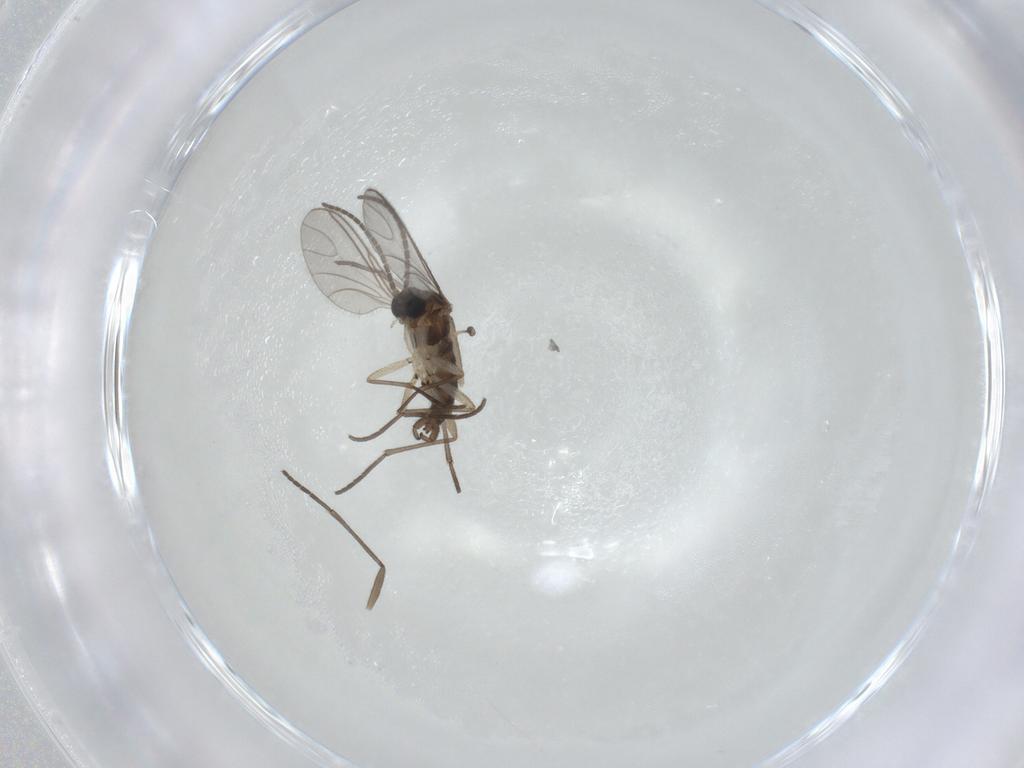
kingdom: Animalia
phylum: Arthropoda
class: Insecta
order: Diptera
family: Sciaridae
